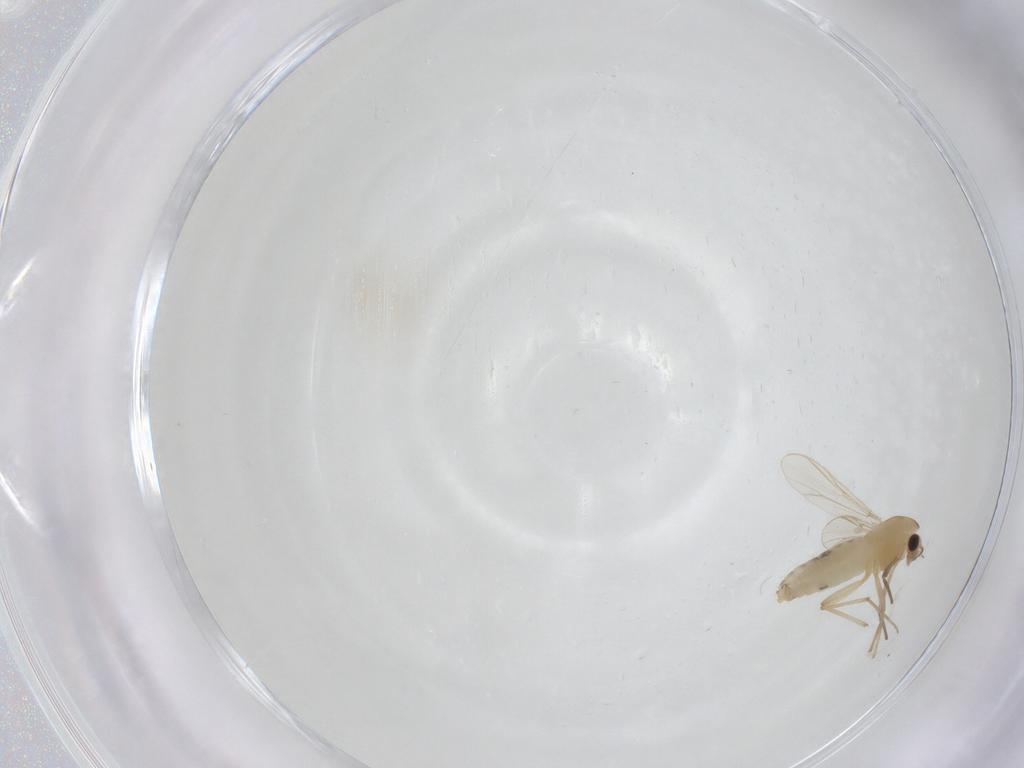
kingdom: Animalia
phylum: Arthropoda
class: Insecta
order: Diptera
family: Chironomidae
